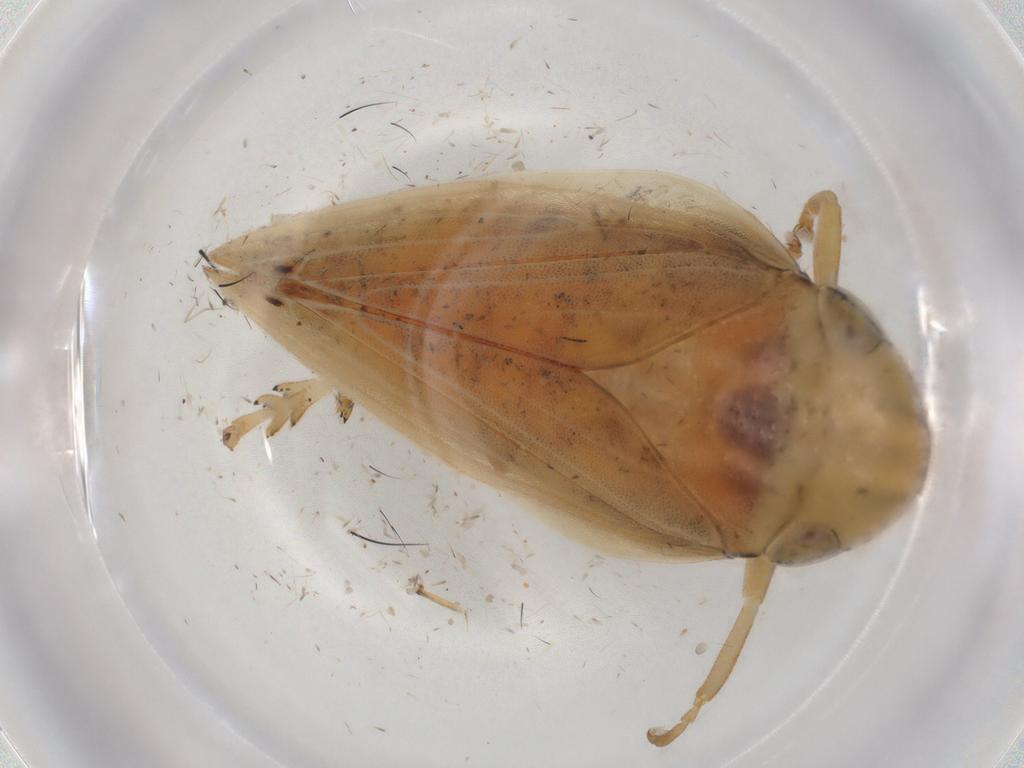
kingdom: Animalia
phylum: Arthropoda
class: Insecta
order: Hemiptera
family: Aphrophoridae
